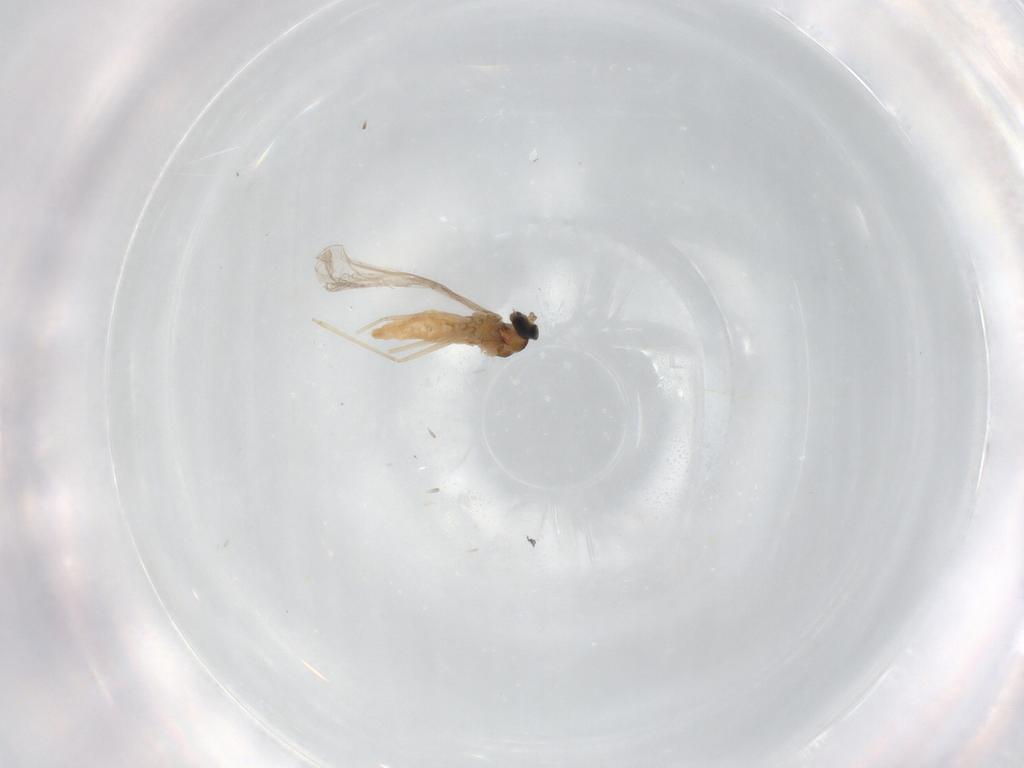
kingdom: Animalia
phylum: Arthropoda
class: Insecta
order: Diptera
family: Cecidomyiidae
